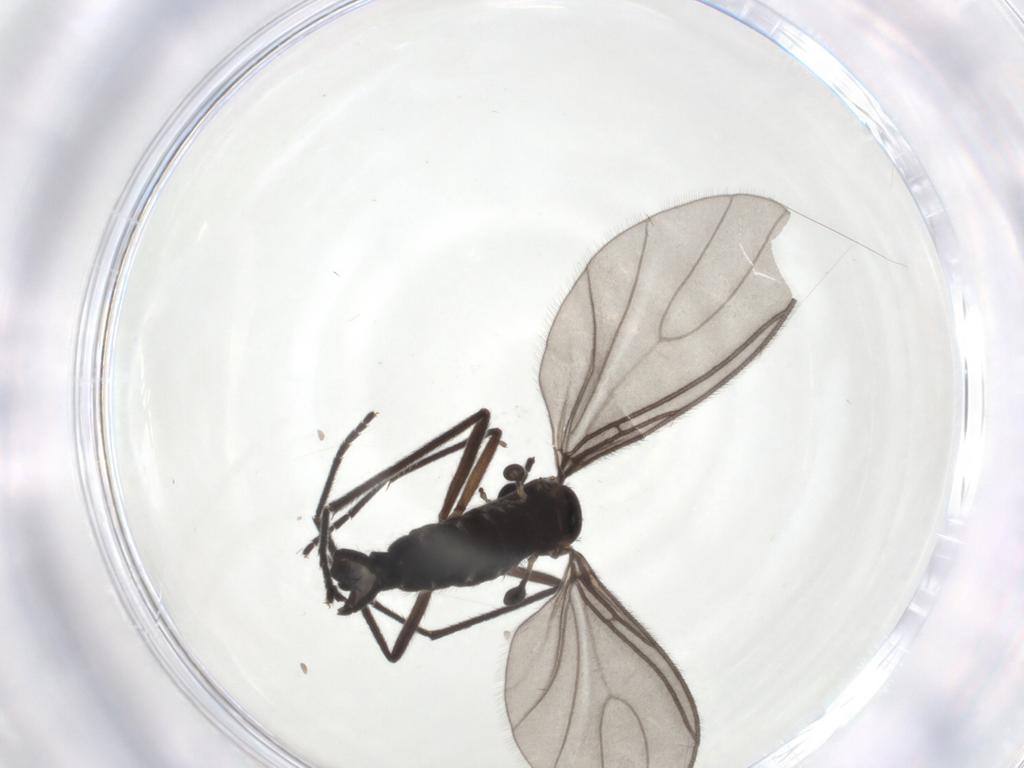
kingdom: Animalia
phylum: Arthropoda
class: Insecta
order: Diptera
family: Sciaridae
